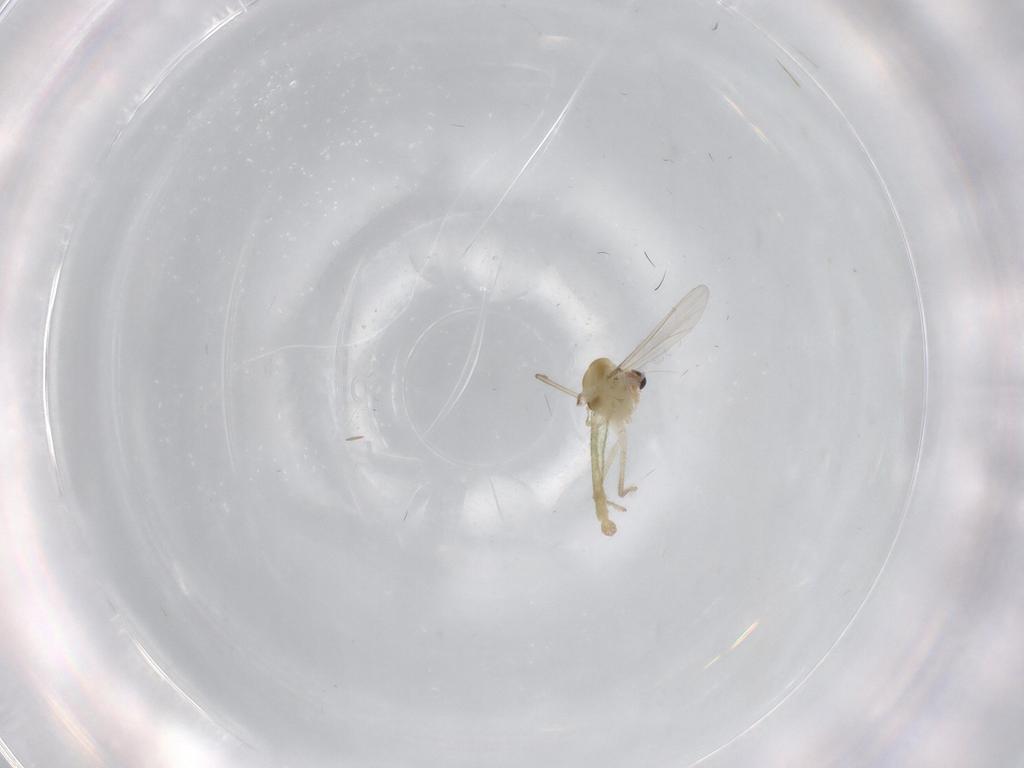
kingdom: Animalia
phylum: Arthropoda
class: Insecta
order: Diptera
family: Chironomidae
